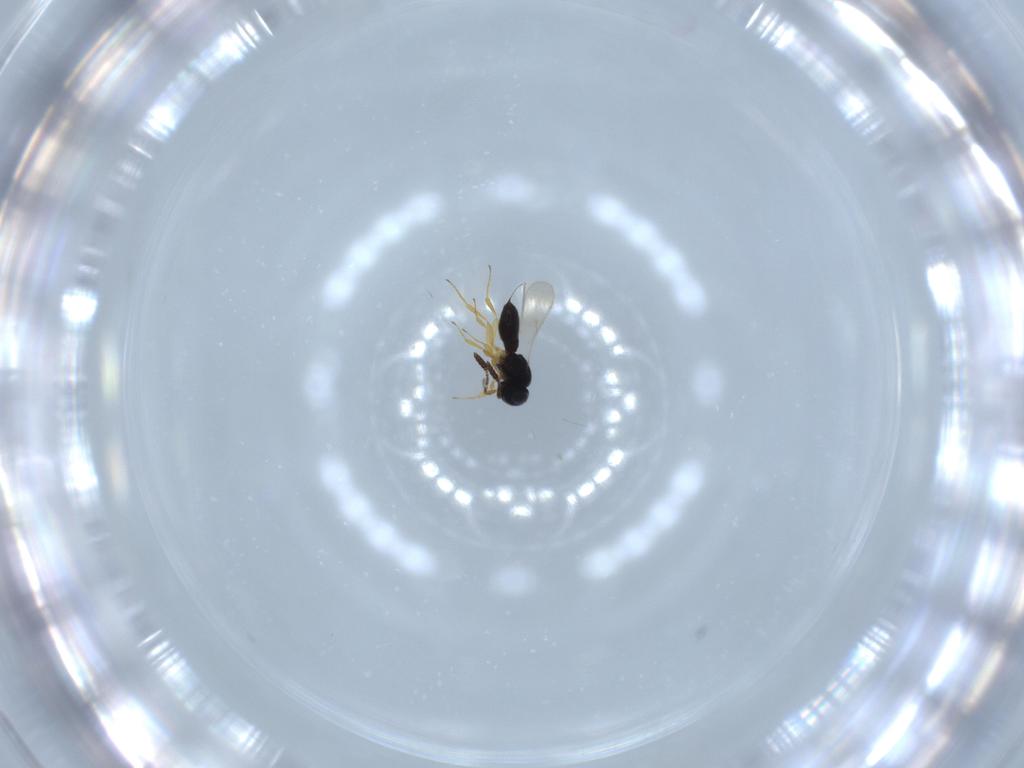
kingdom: Animalia
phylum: Arthropoda
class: Insecta
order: Hymenoptera
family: Scelionidae
